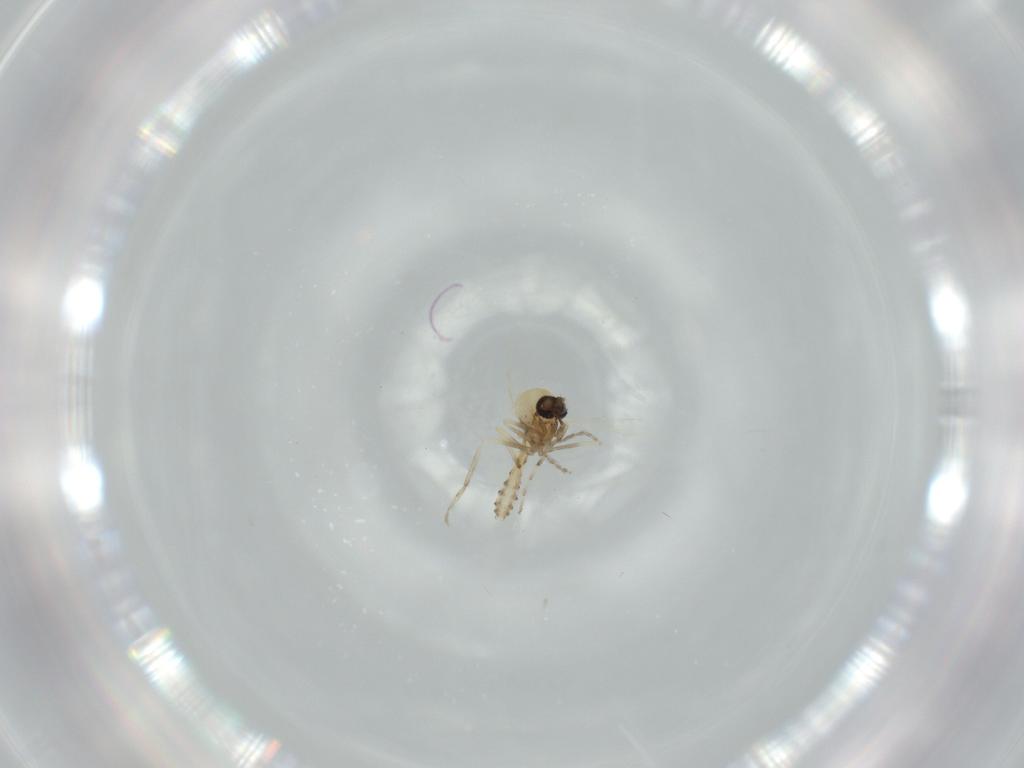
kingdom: Animalia
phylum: Arthropoda
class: Insecta
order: Diptera
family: Ceratopogonidae
